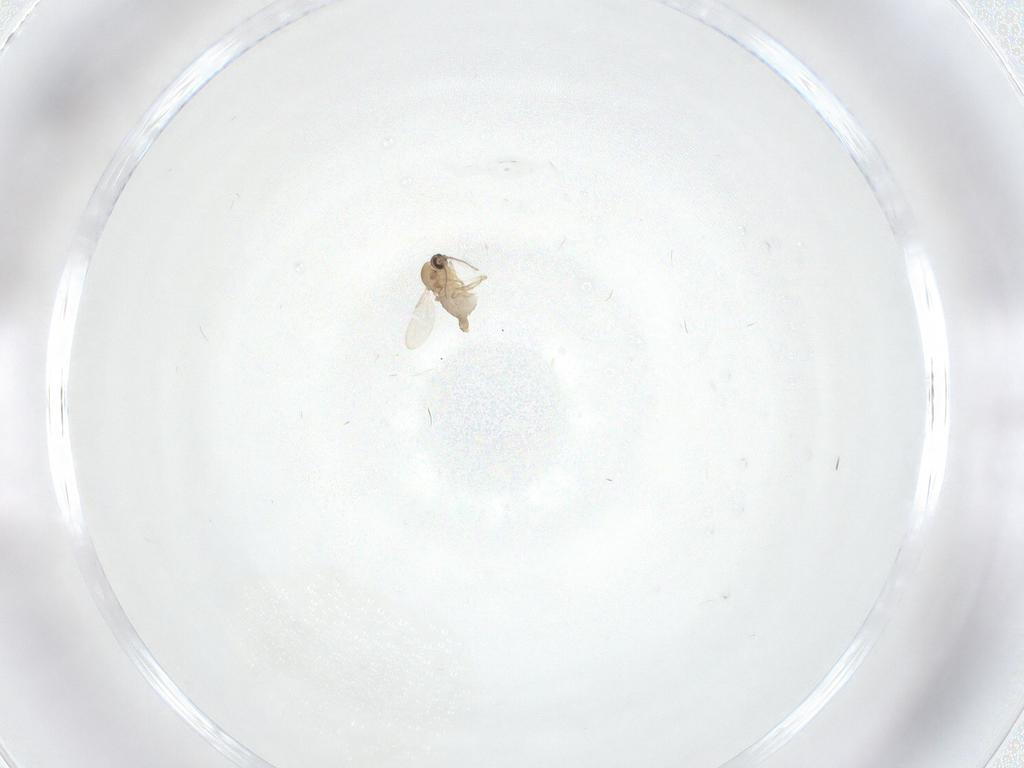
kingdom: Animalia
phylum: Arthropoda
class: Insecta
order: Diptera
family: Ceratopogonidae
